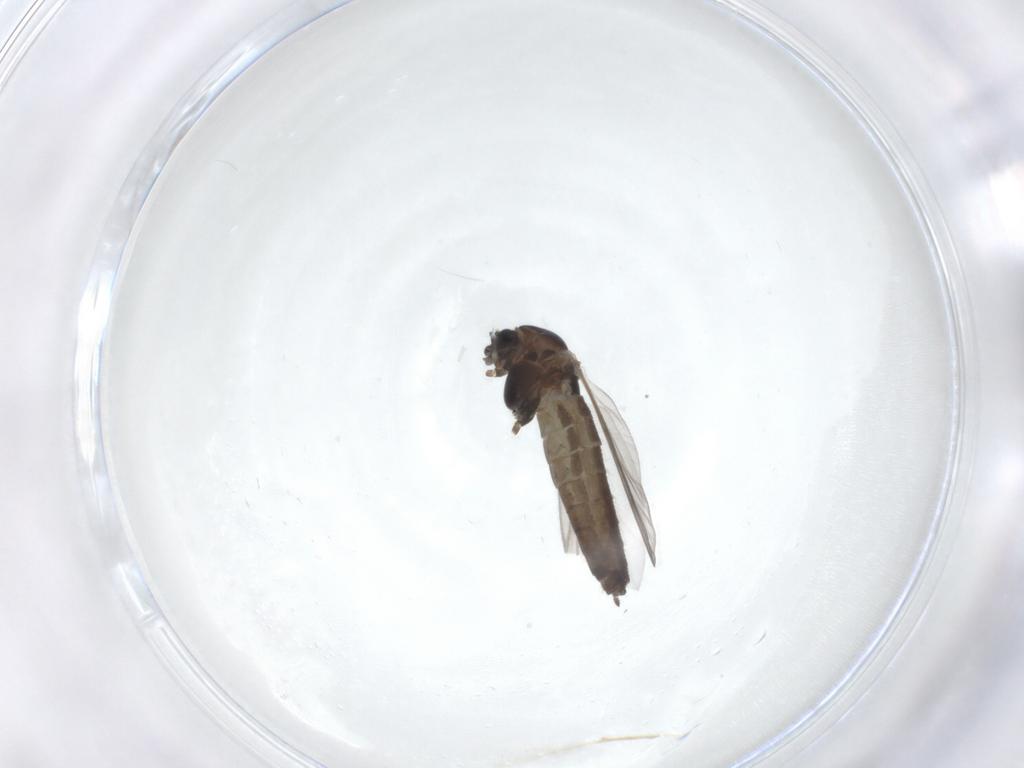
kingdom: Animalia
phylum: Arthropoda
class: Insecta
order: Diptera
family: Chironomidae
